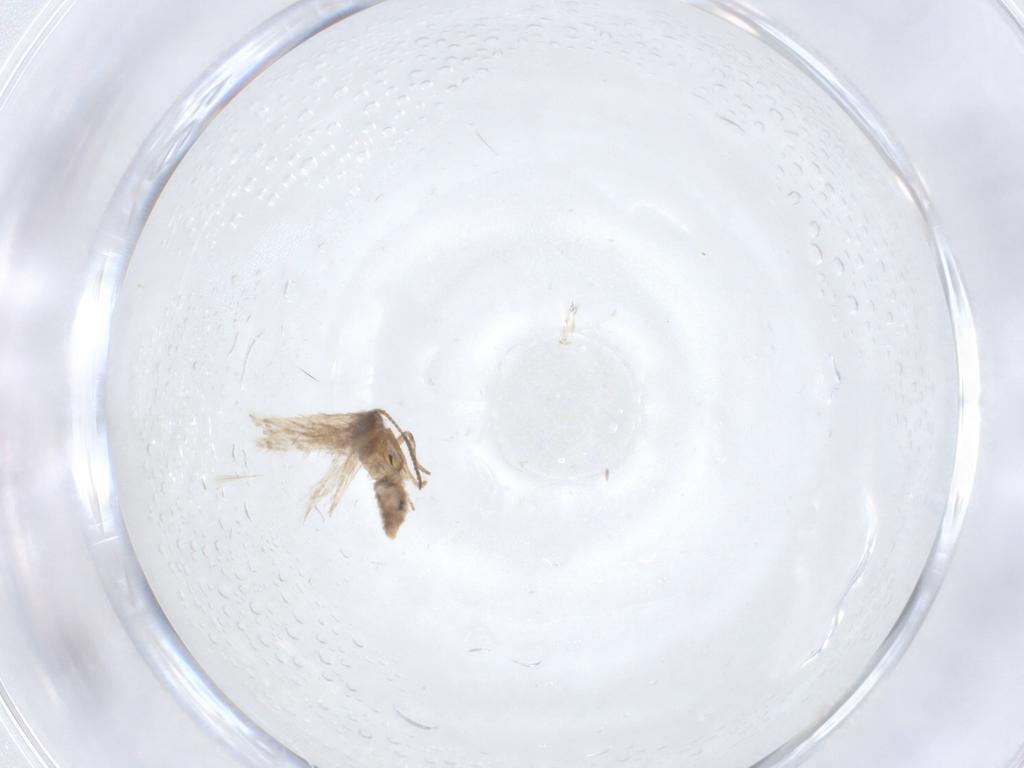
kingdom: Animalia
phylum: Arthropoda
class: Insecta
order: Lepidoptera
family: Nepticulidae
